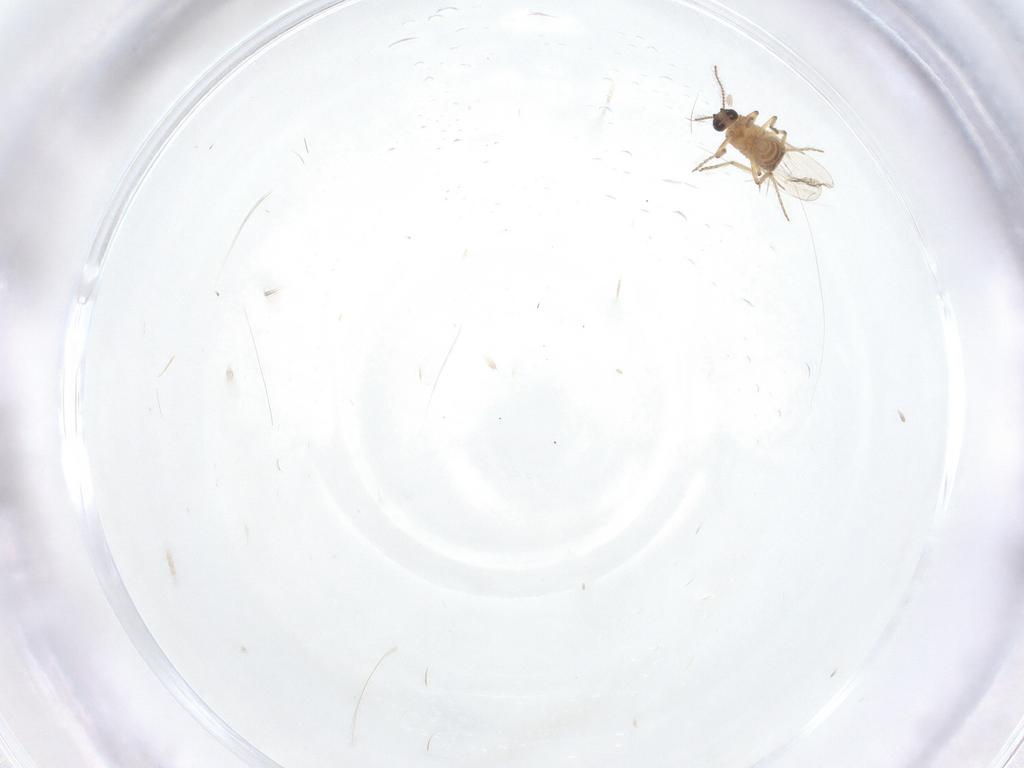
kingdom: Animalia
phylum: Arthropoda
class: Insecta
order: Diptera
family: Ceratopogonidae
